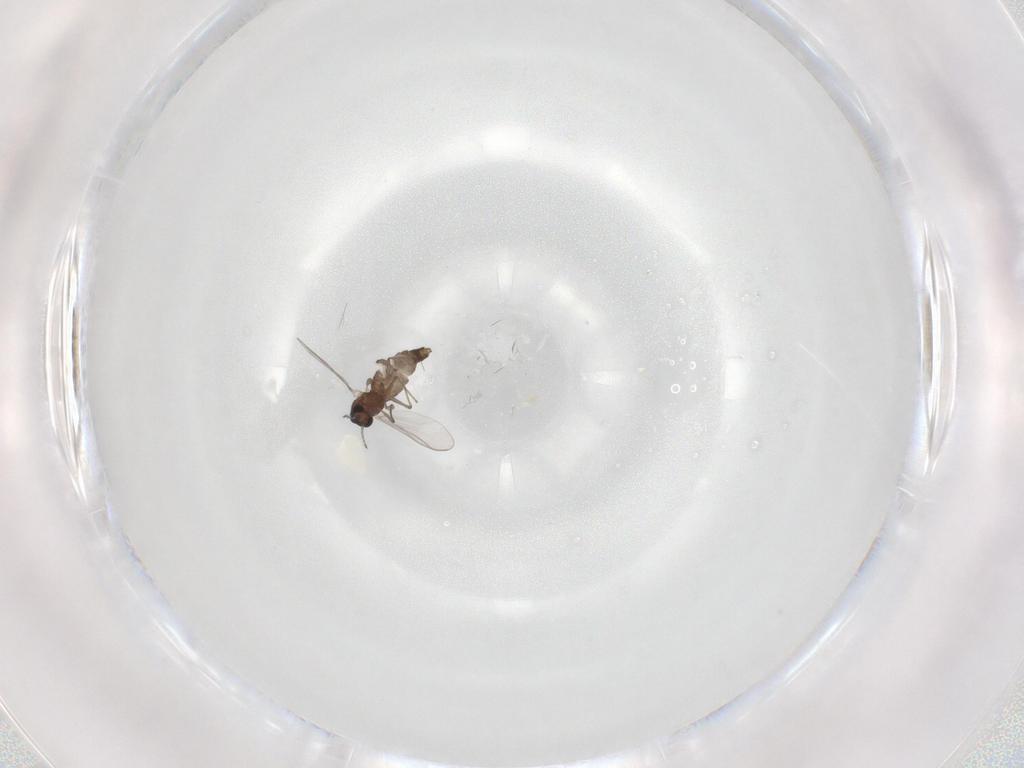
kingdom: Animalia
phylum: Arthropoda
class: Insecta
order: Diptera
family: Chironomidae
